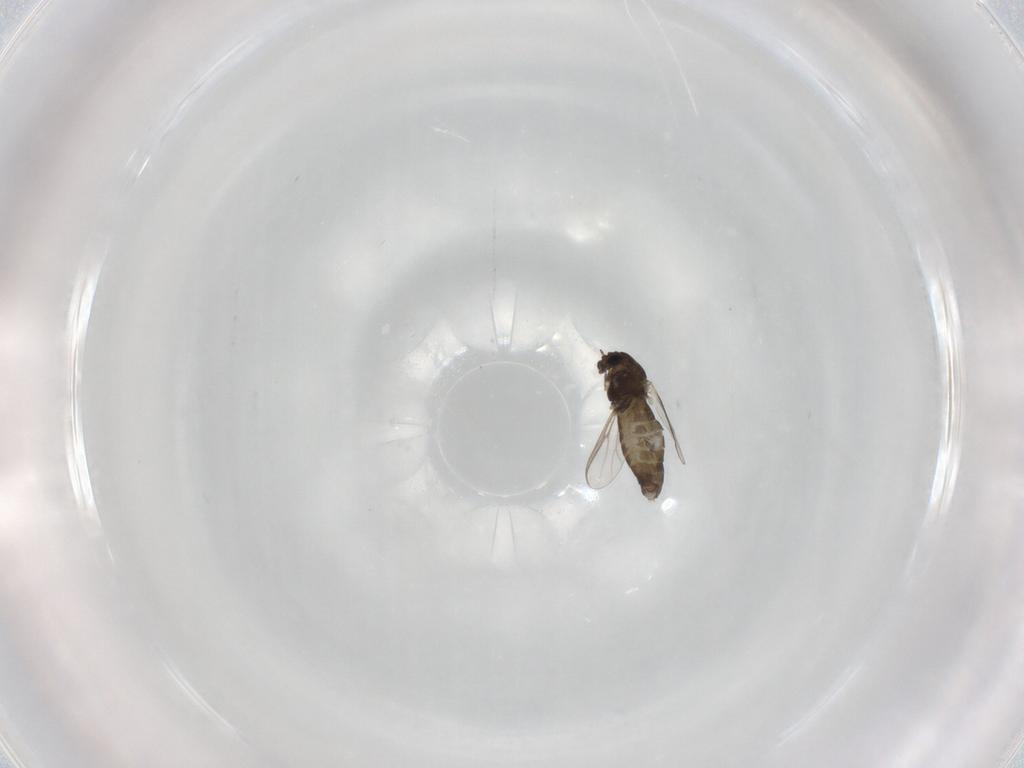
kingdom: Animalia
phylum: Arthropoda
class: Insecta
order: Diptera
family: Chironomidae
